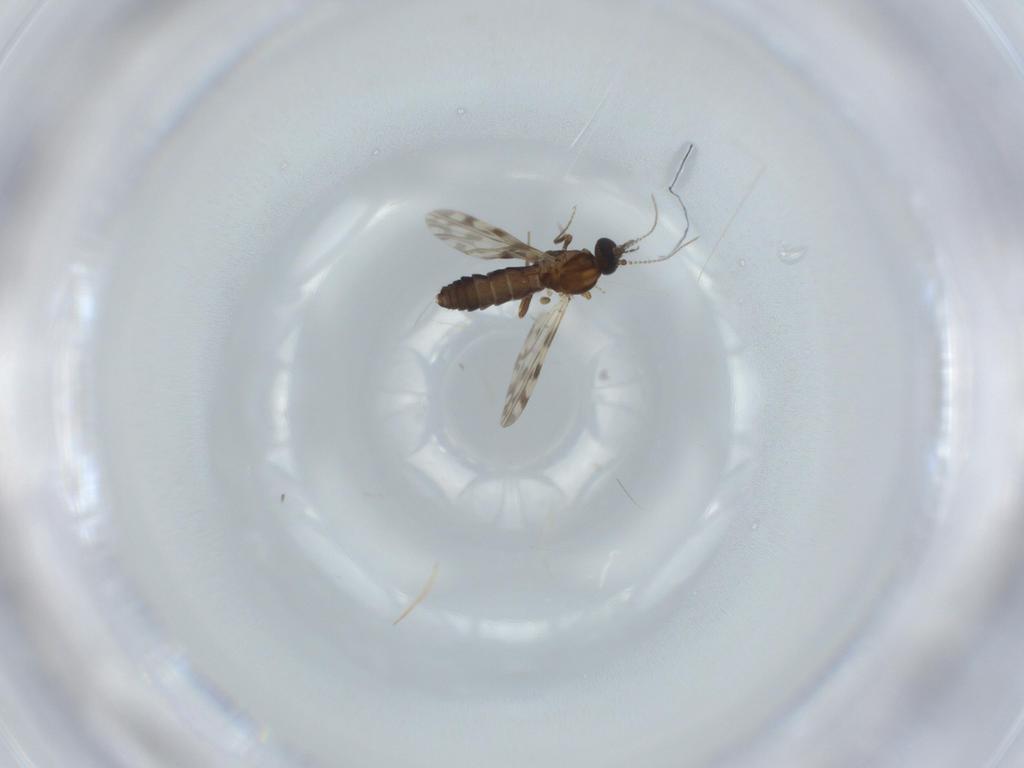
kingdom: Animalia
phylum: Arthropoda
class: Insecta
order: Diptera
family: Ceratopogonidae
